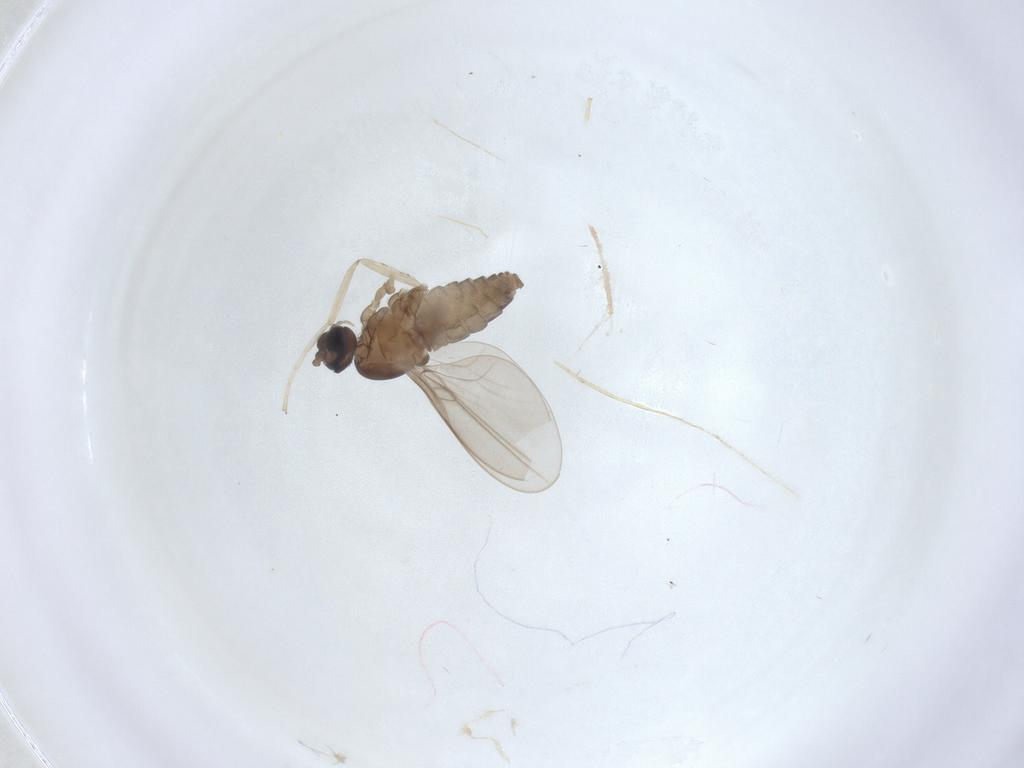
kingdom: Animalia
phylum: Arthropoda
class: Insecta
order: Diptera
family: Cecidomyiidae
